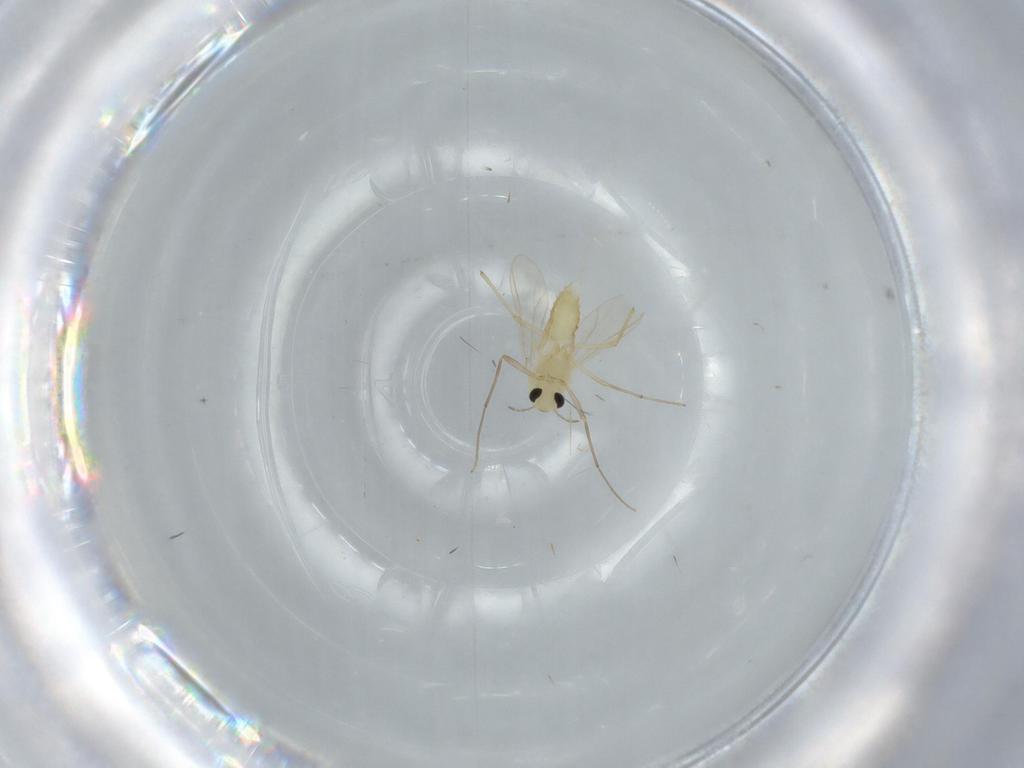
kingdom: Animalia
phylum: Arthropoda
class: Insecta
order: Diptera
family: Chironomidae
